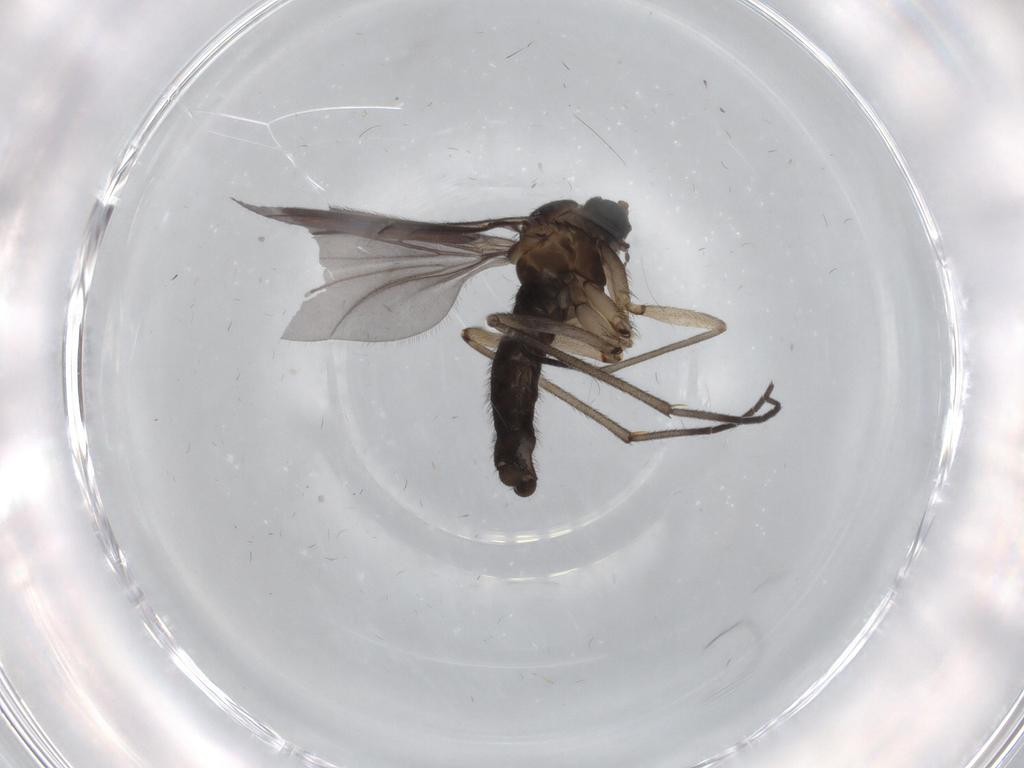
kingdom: Animalia
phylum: Arthropoda
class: Insecta
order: Diptera
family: Sciaridae
